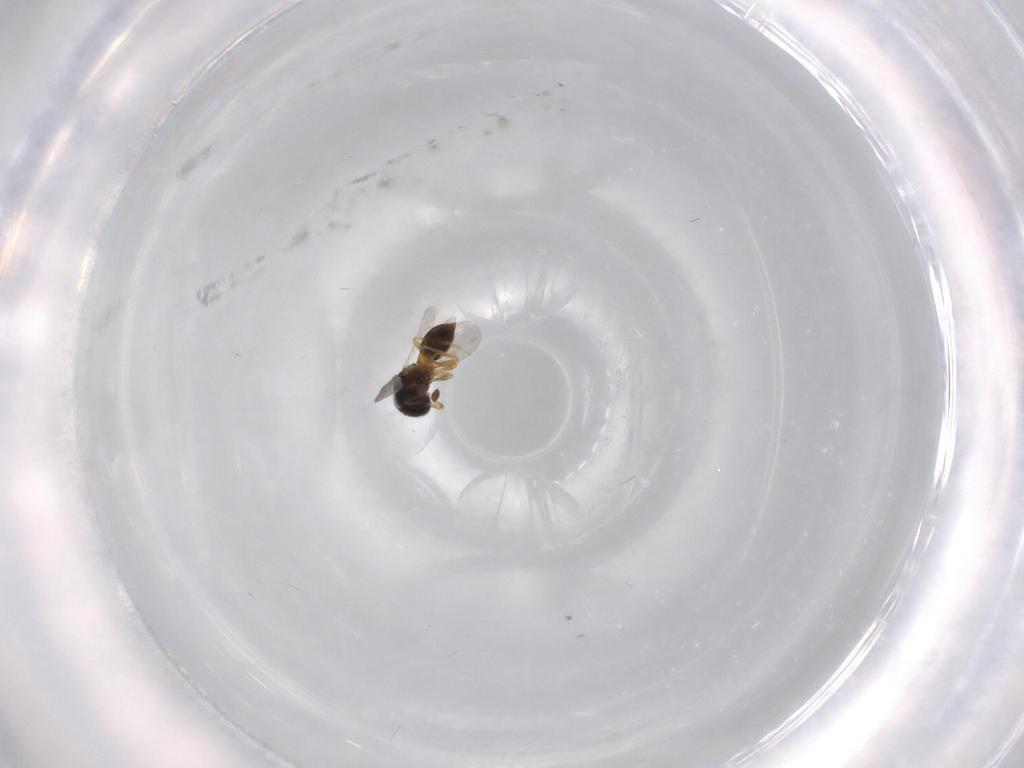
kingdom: Animalia
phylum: Arthropoda
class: Insecta
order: Hymenoptera
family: Scelionidae
